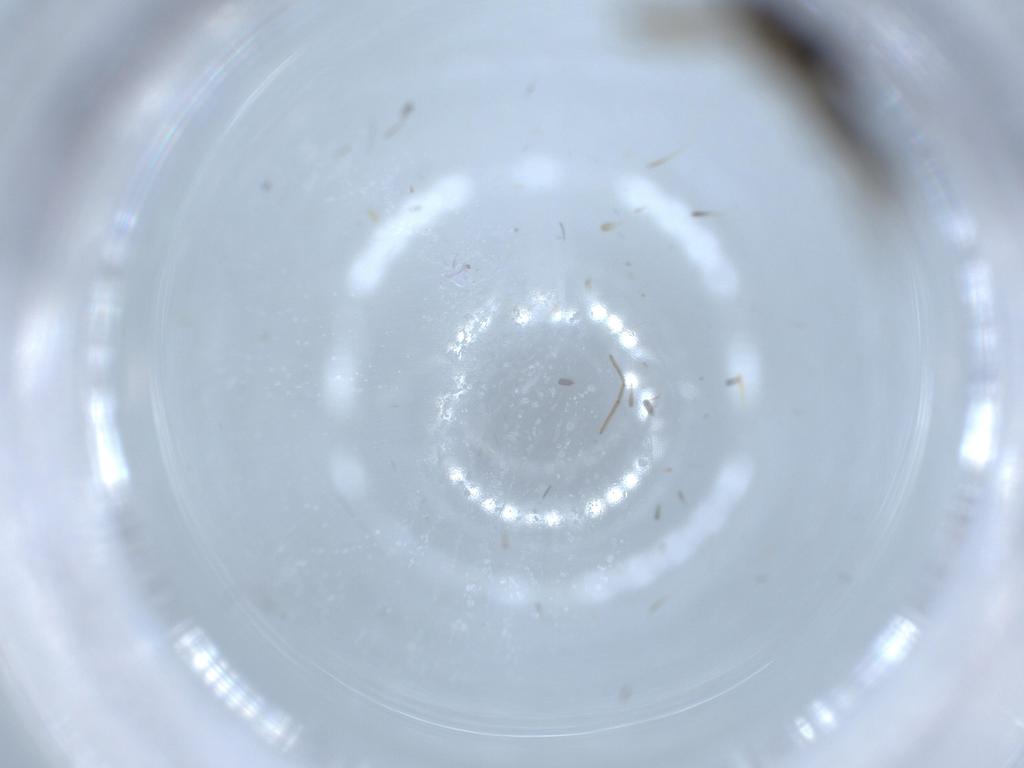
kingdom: Animalia
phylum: Arthropoda
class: Insecta
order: Diptera
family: Sciaridae
